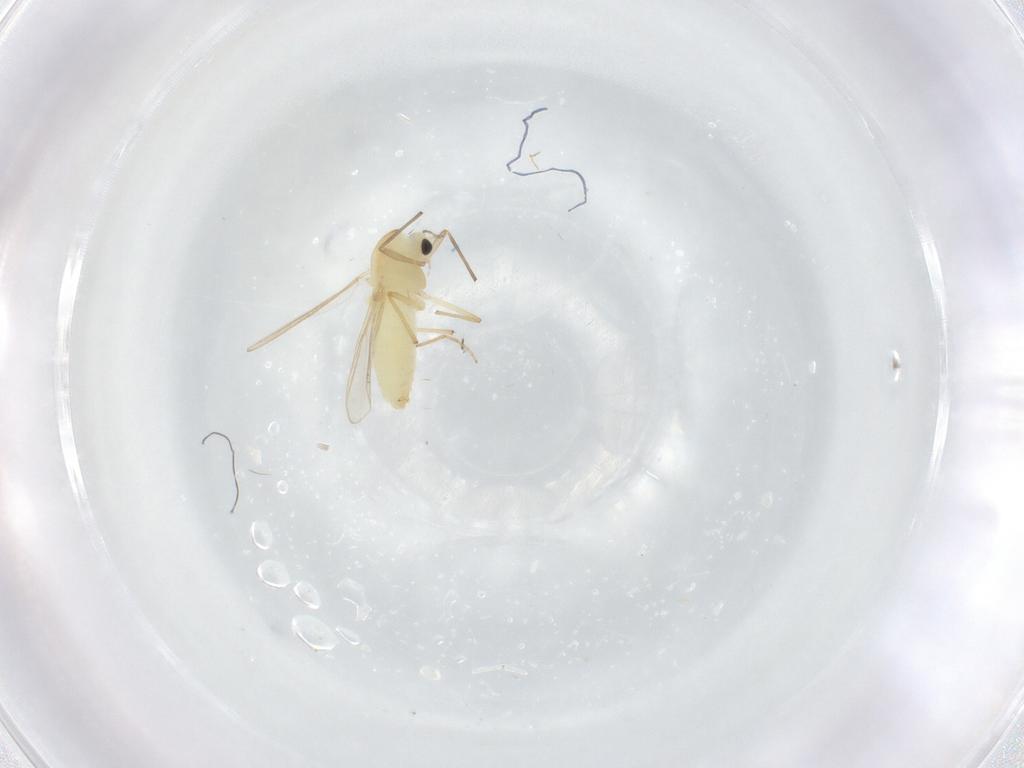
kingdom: Animalia
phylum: Arthropoda
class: Insecta
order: Diptera
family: Chironomidae
